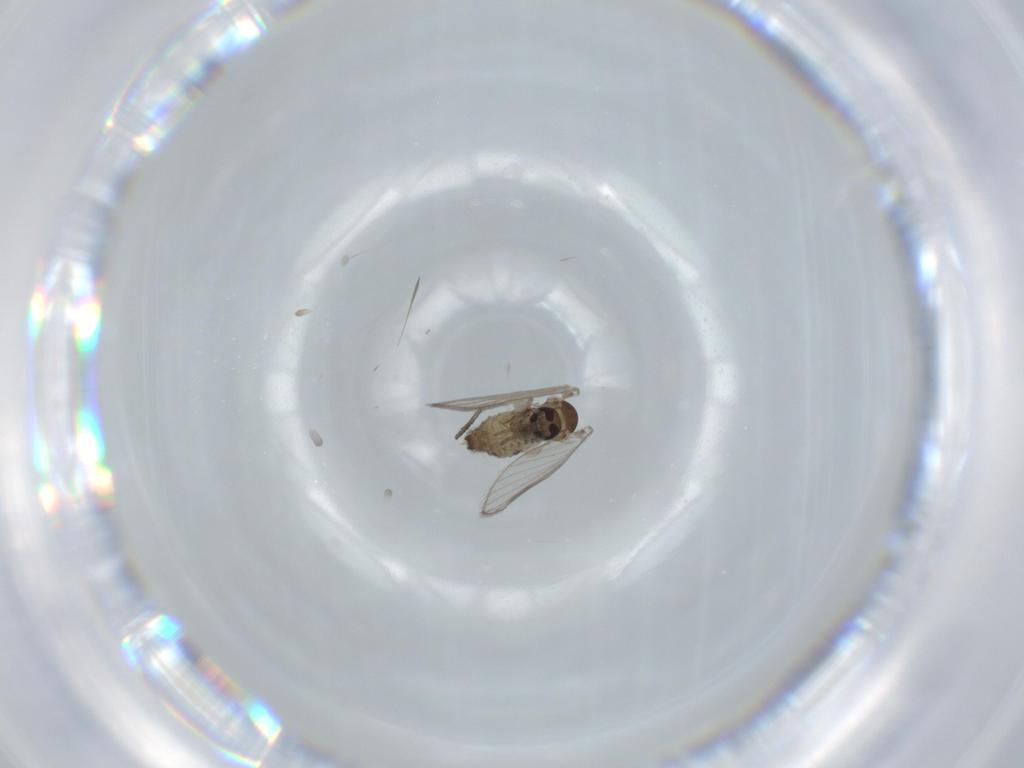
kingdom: Animalia
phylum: Arthropoda
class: Insecta
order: Diptera
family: Psychodidae
